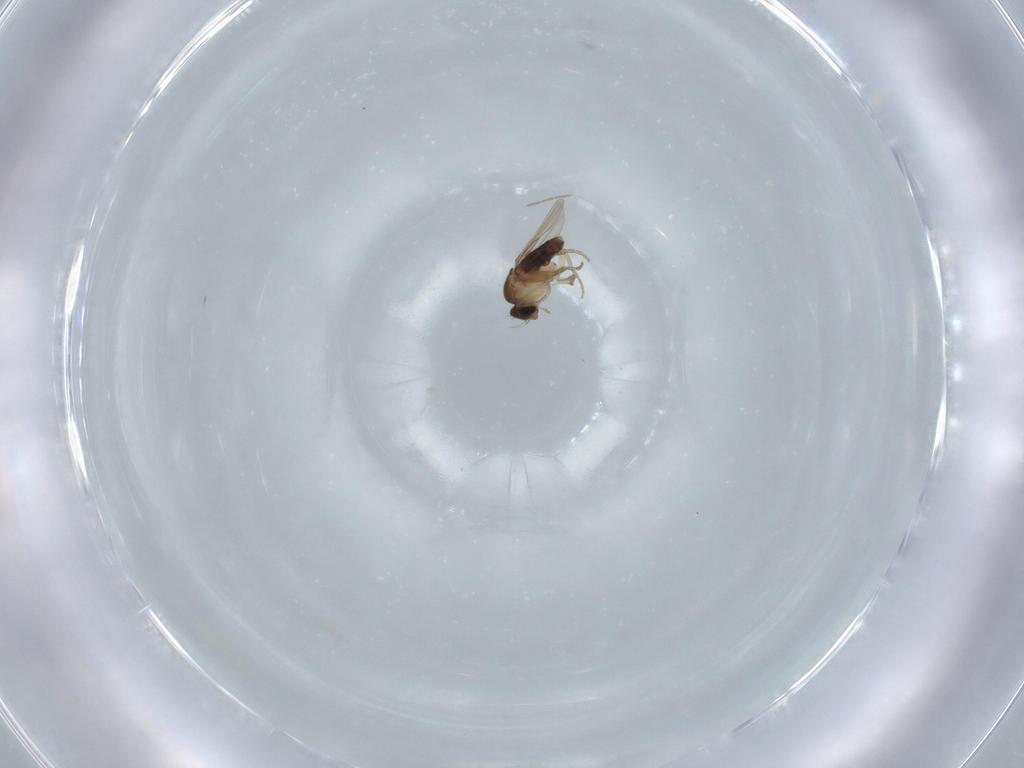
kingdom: Animalia
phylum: Arthropoda
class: Insecta
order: Diptera
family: Phoridae
